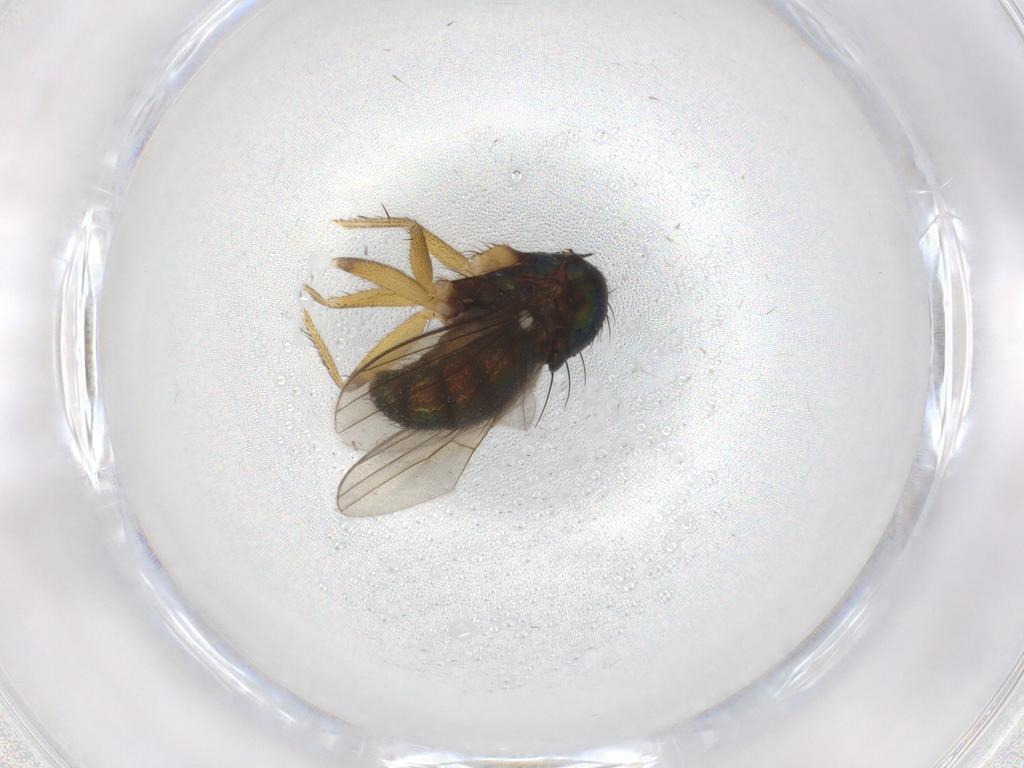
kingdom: Animalia
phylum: Arthropoda
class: Insecta
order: Diptera
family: Dolichopodidae
